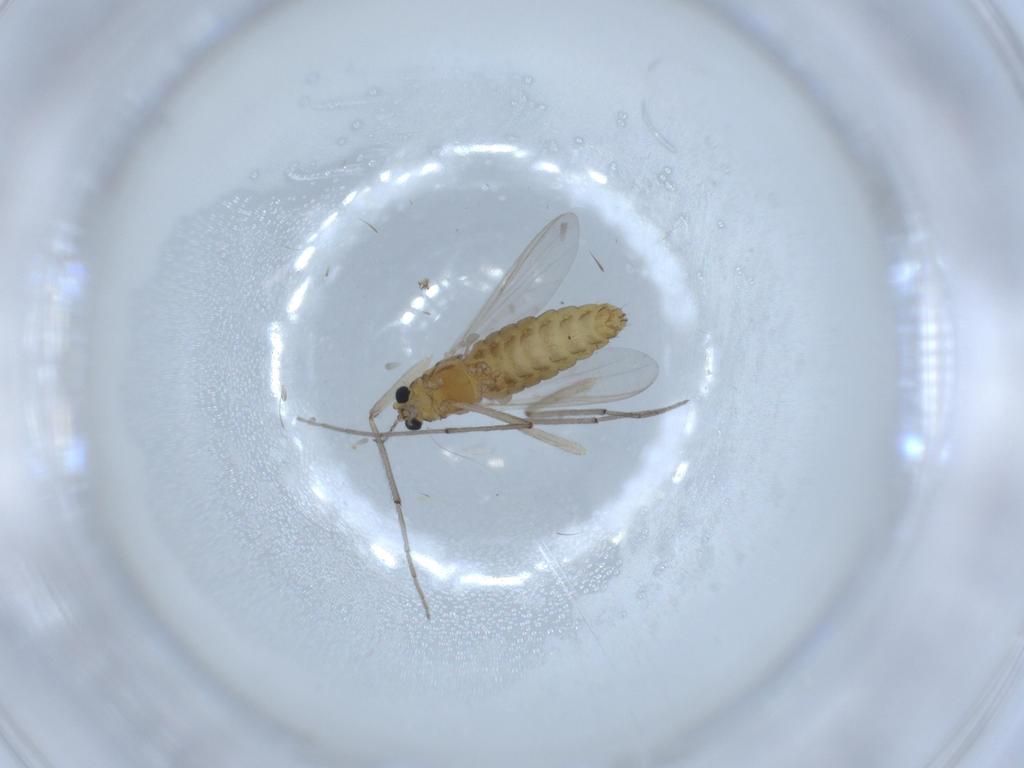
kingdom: Animalia
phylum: Arthropoda
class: Insecta
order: Diptera
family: Chironomidae
